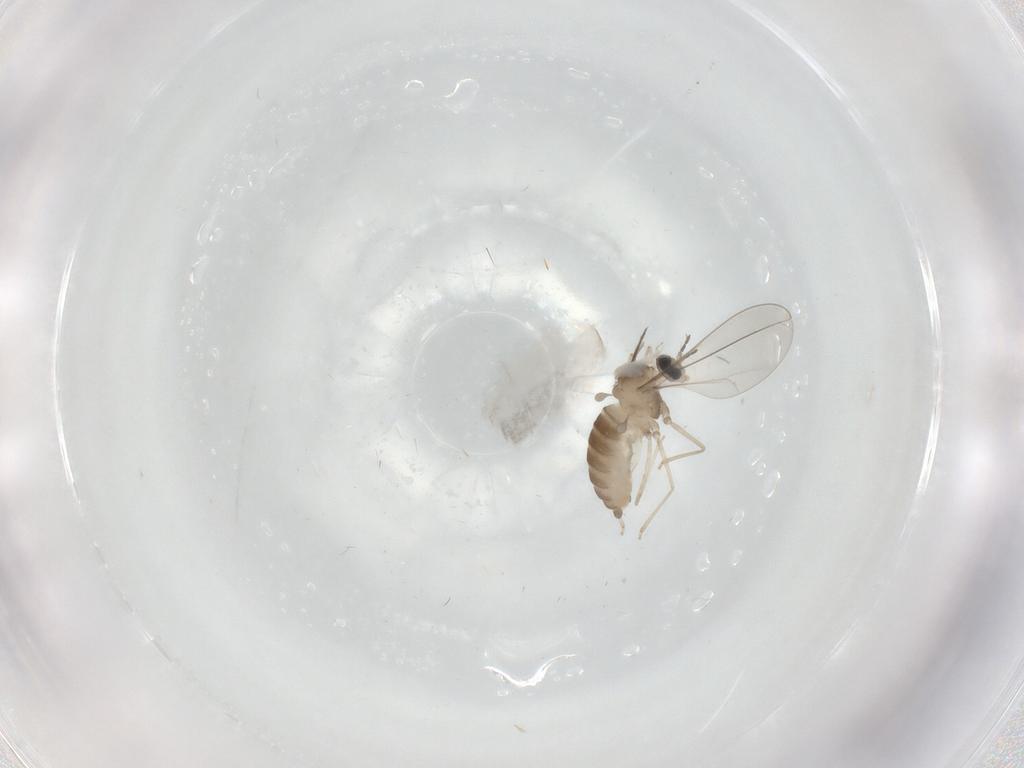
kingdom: Animalia
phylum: Arthropoda
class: Insecta
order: Diptera
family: Cecidomyiidae
